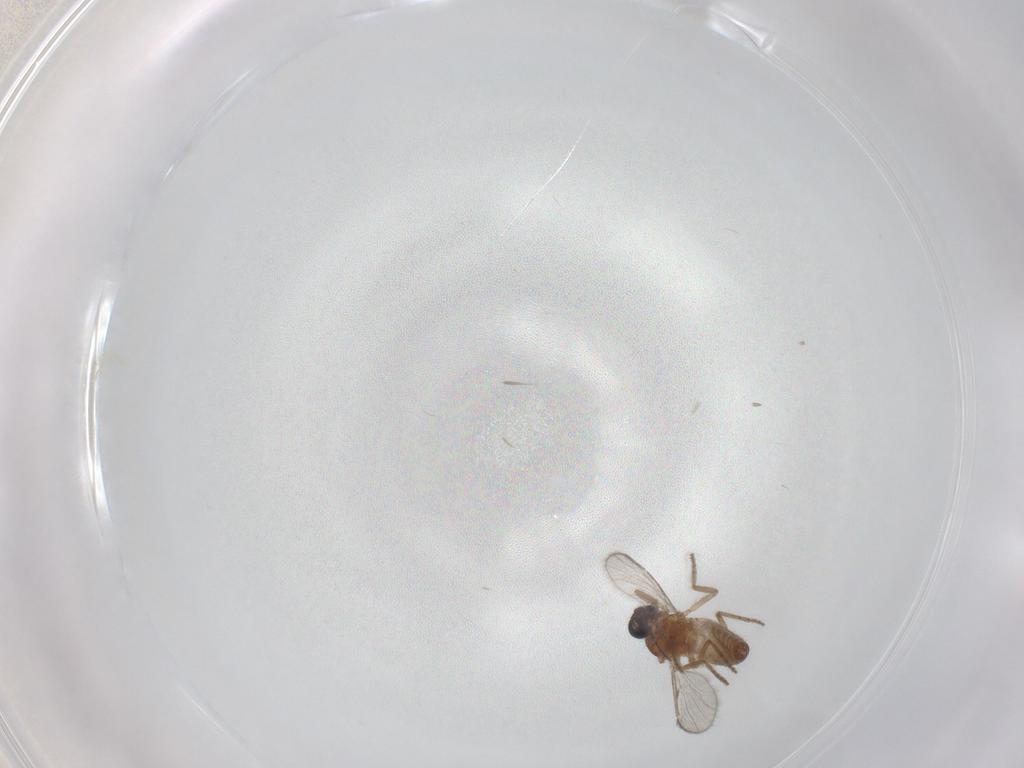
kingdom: Animalia
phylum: Arthropoda
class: Insecta
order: Diptera
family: Ceratopogonidae
